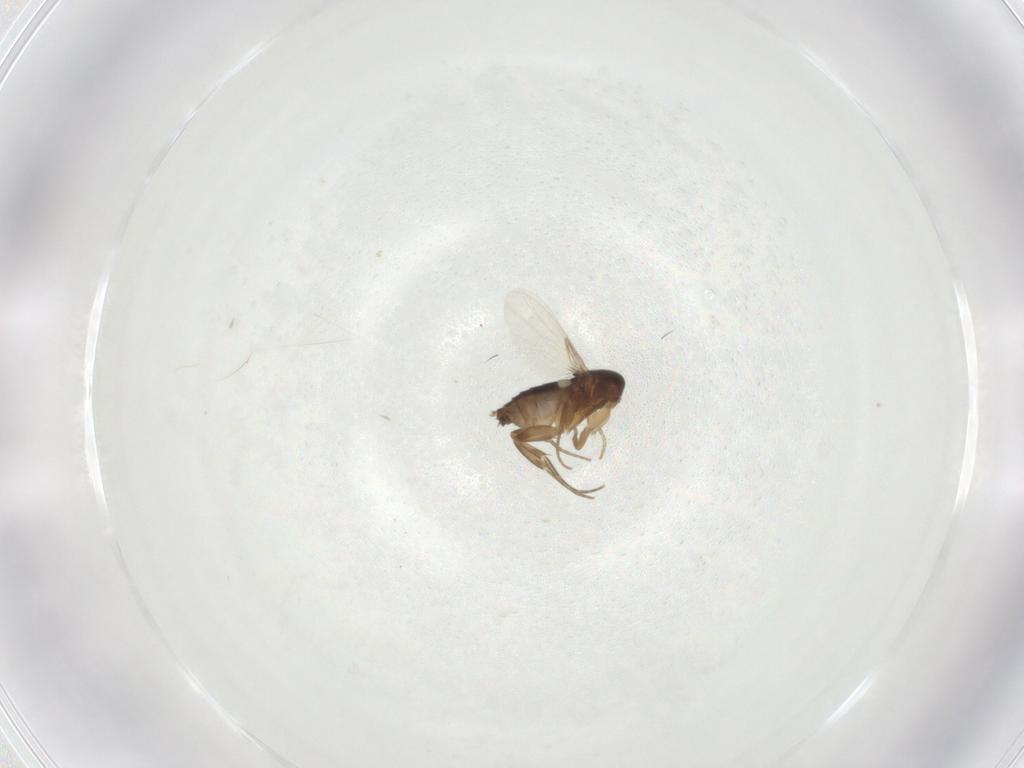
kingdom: Animalia
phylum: Arthropoda
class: Insecta
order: Diptera
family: Phoridae
